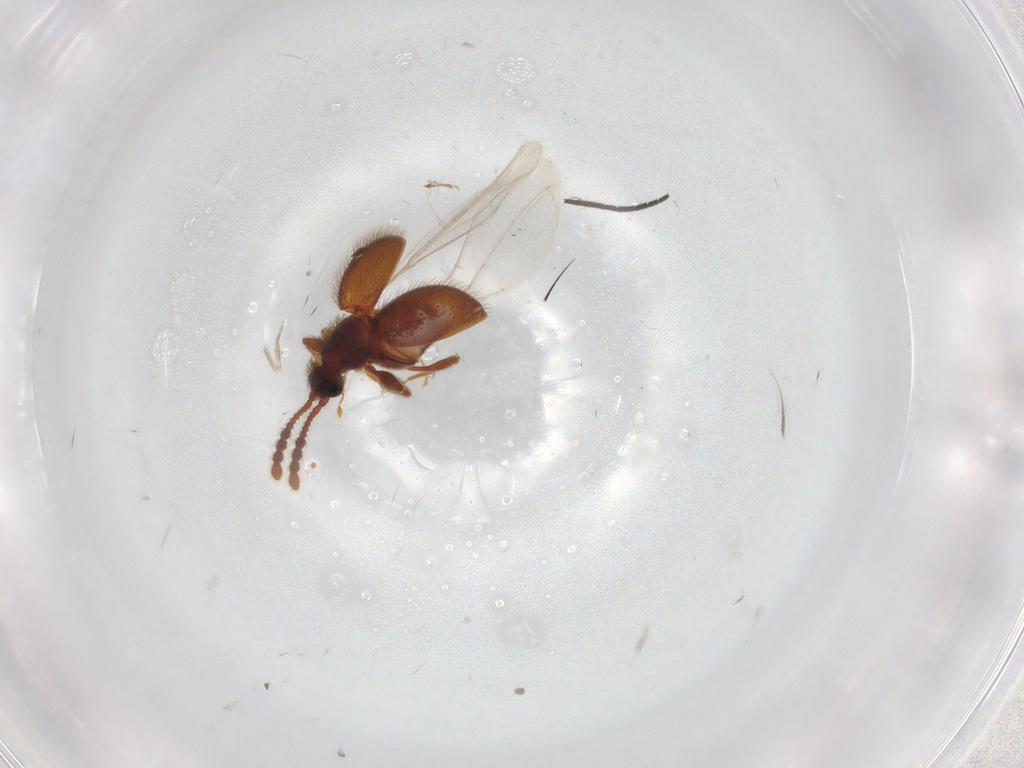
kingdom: Animalia
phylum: Arthropoda
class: Insecta
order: Coleoptera
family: Staphylinidae
